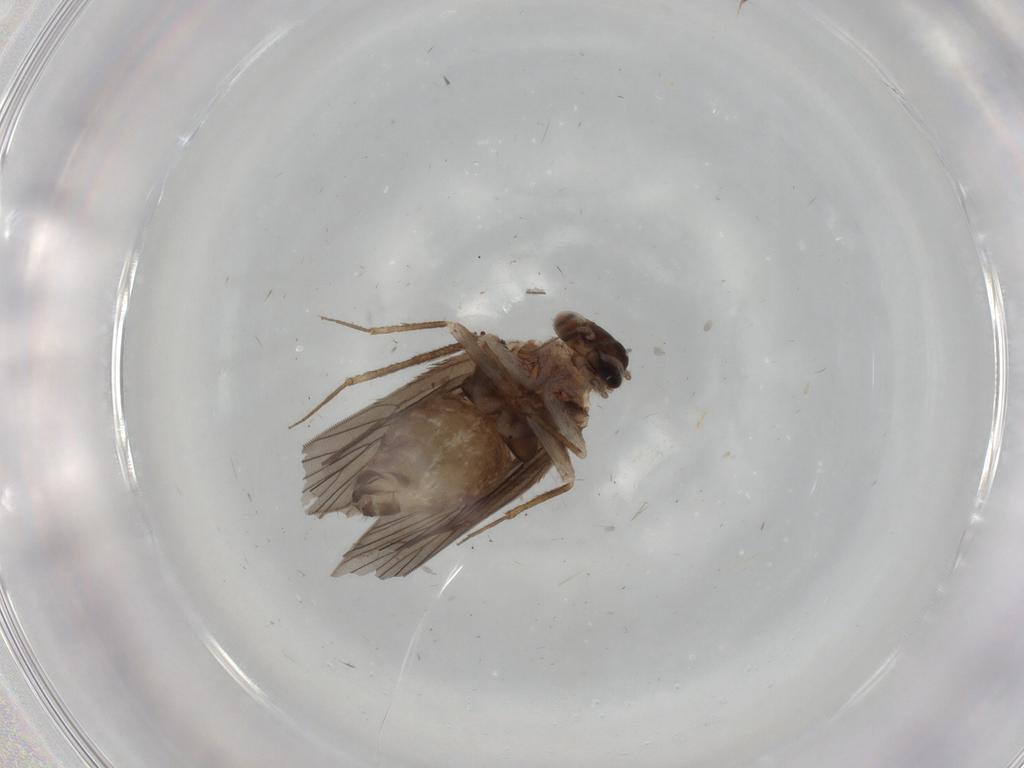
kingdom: Animalia
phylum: Arthropoda
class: Insecta
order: Psocodea
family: Lepidopsocidae
